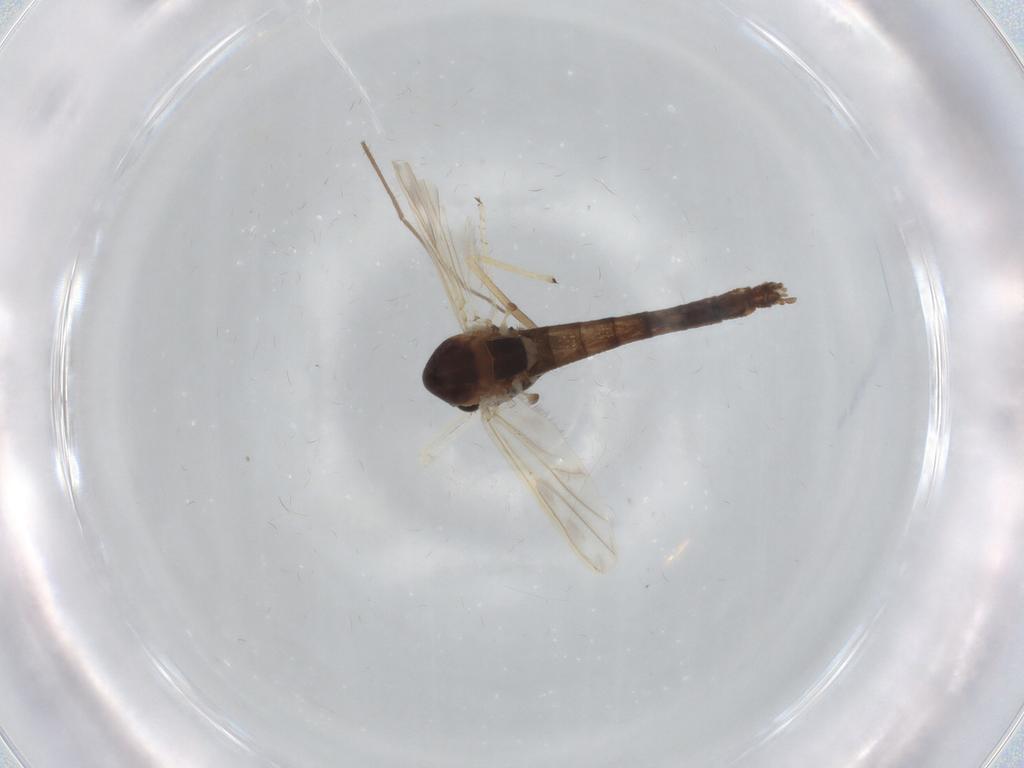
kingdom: Animalia
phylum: Arthropoda
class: Insecta
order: Diptera
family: Chironomidae
